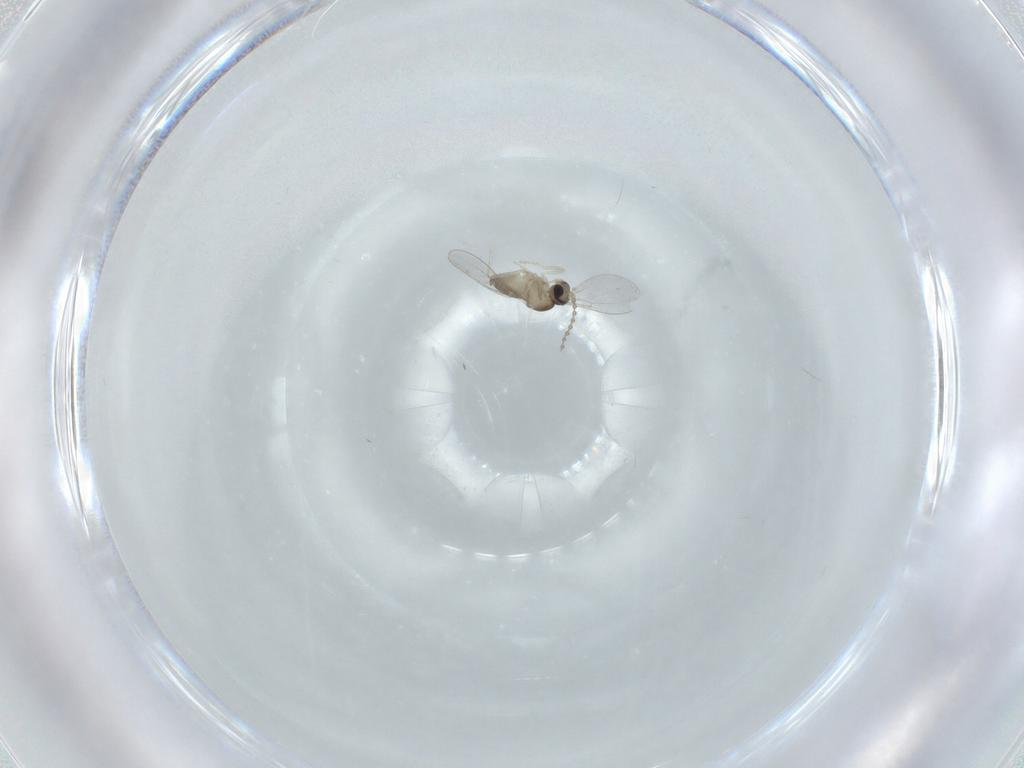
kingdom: Animalia
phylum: Arthropoda
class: Insecta
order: Diptera
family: Cecidomyiidae
